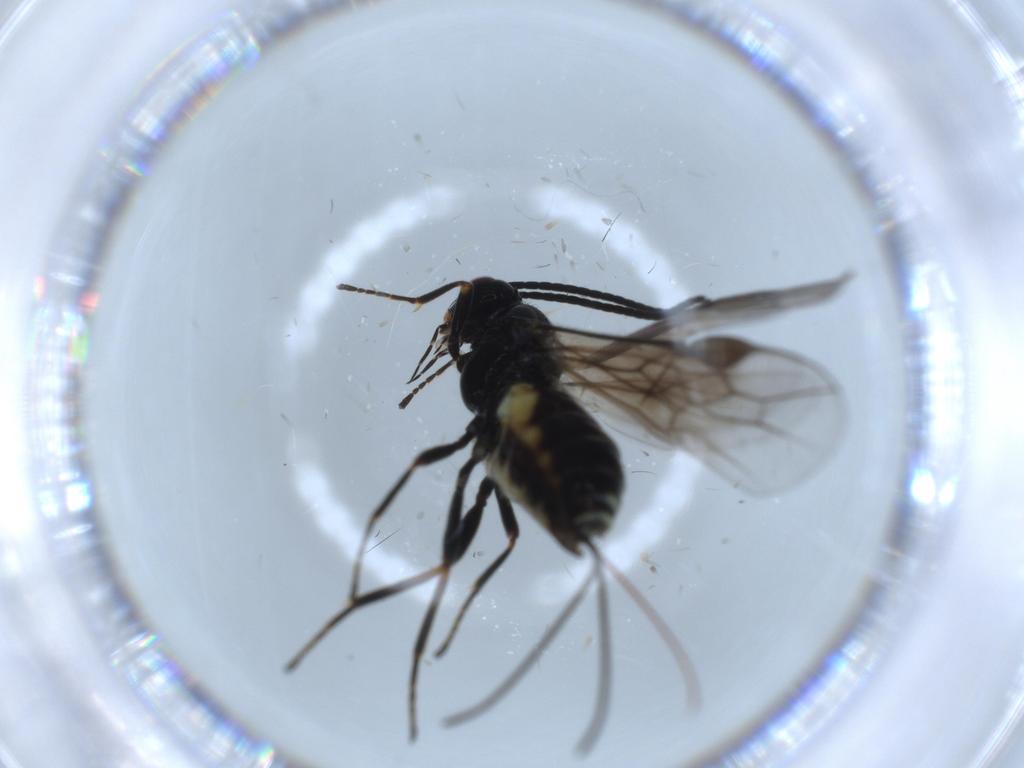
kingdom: Animalia
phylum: Arthropoda
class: Insecta
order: Hymenoptera
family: Braconidae
